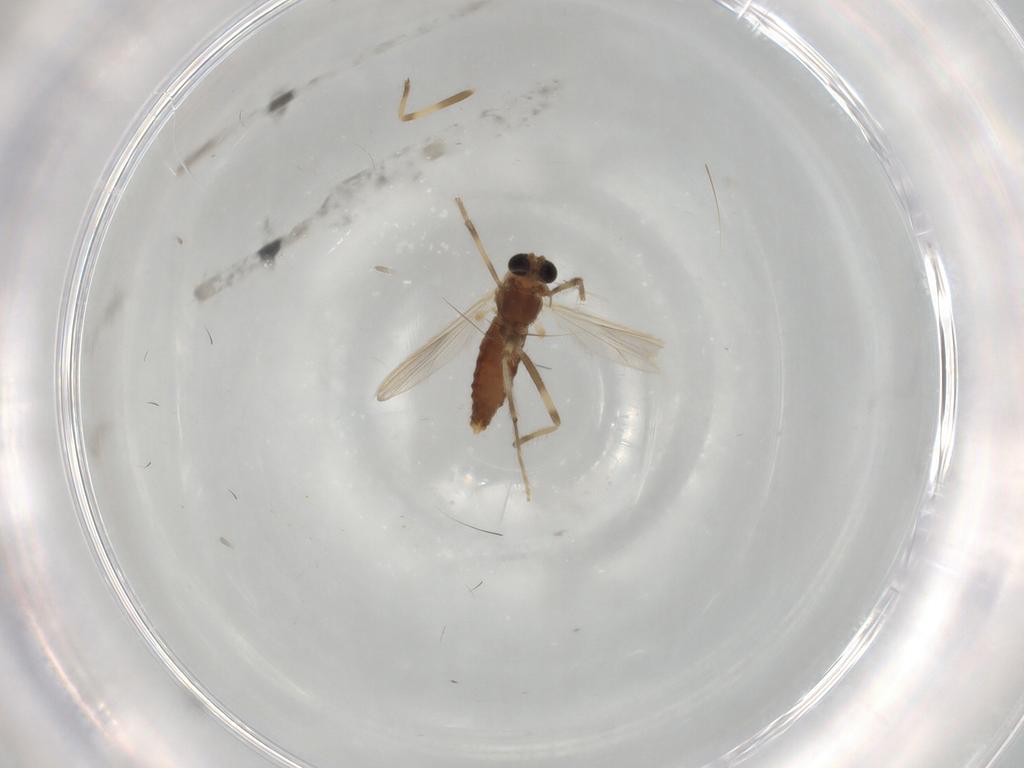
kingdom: Animalia
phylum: Arthropoda
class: Insecta
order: Diptera
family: Chironomidae
